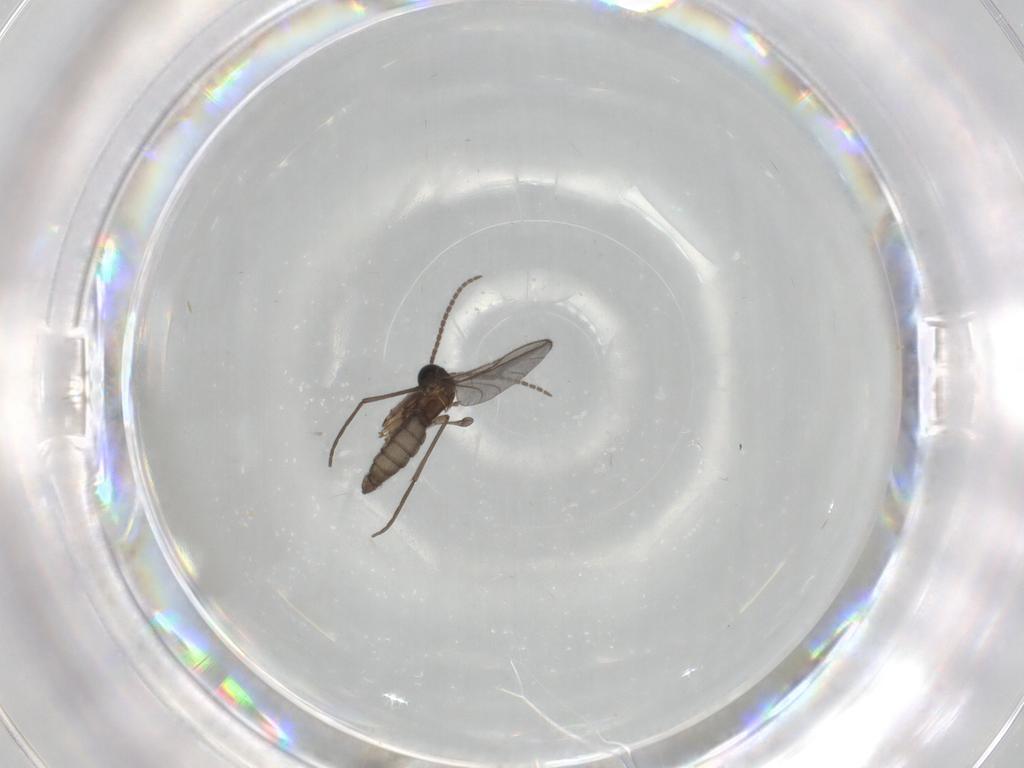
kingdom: Animalia
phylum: Arthropoda
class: Insecta
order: Diptera
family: Sciaridae
